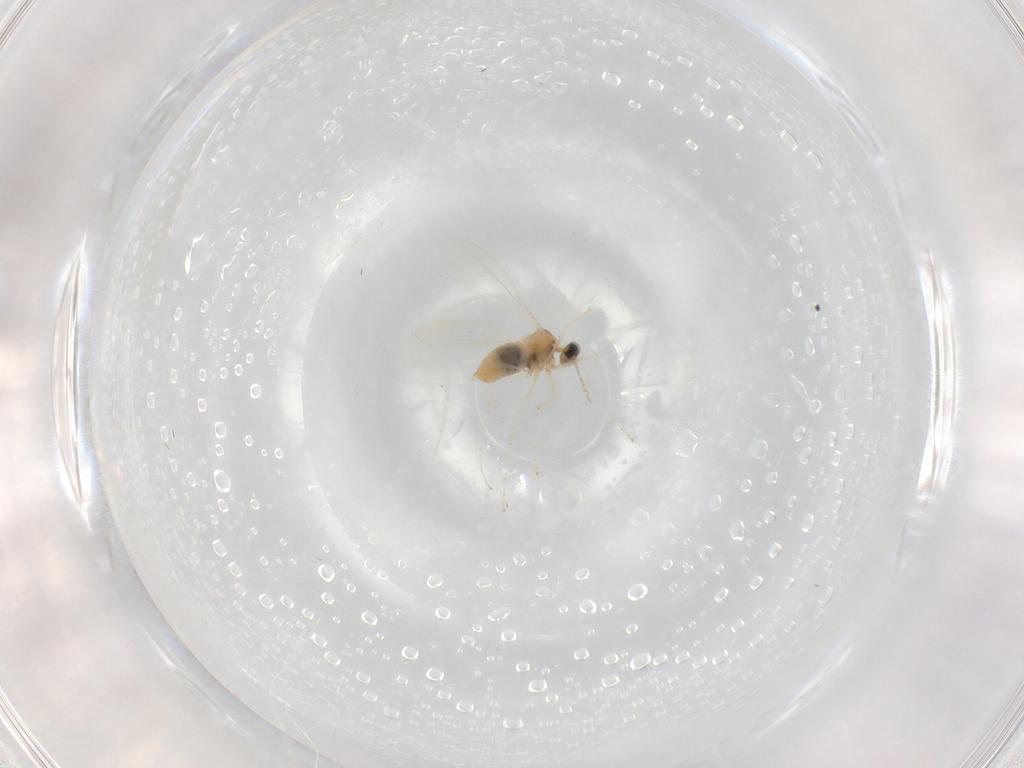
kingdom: Animalia
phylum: Arthropoda
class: Insecta
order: Diptera
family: Cecidomyiidae
